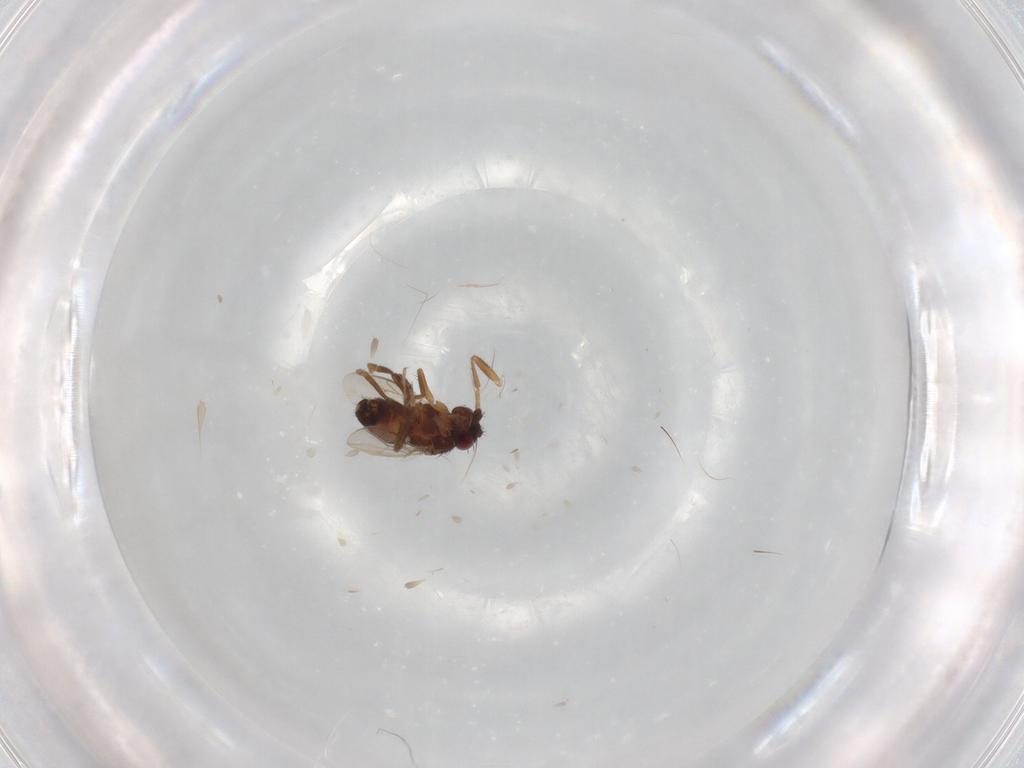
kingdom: Animalia
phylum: Arthropoda
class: Insecta
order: Diptera
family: Sphaeroceridae
